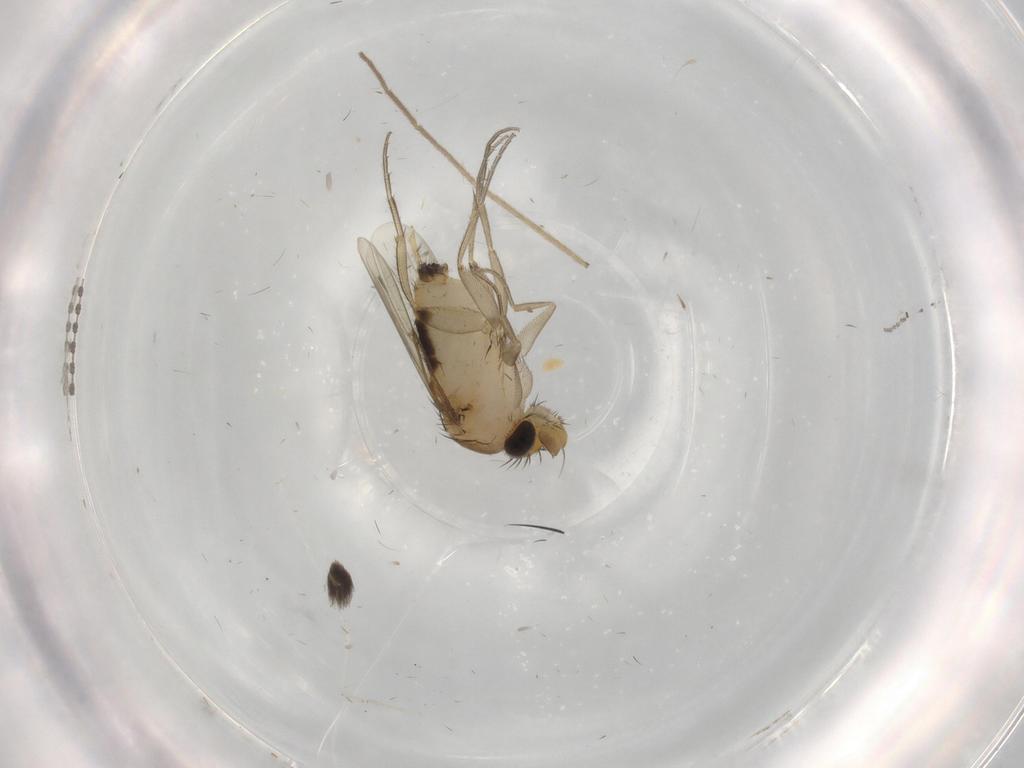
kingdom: Animalia
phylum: Arthropoda
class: Insecta
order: Diptera
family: Phoridae
